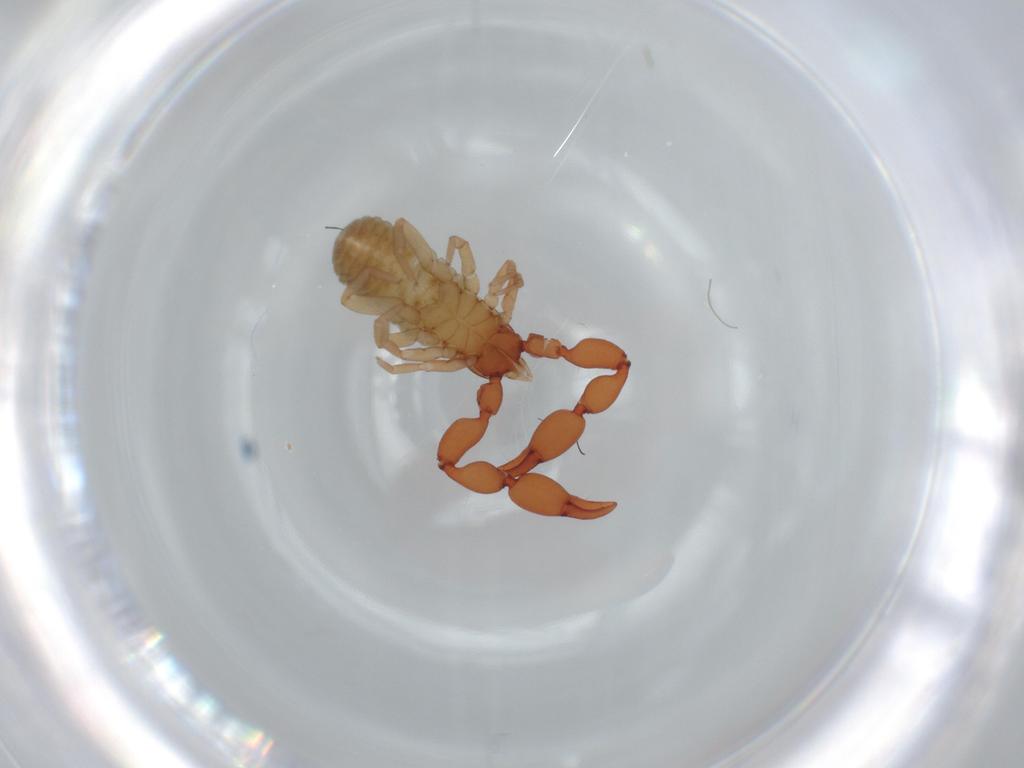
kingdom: Animalia
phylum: Arthropoda
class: Arachnida
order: Pseudoscorpiones
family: Chernetidae
